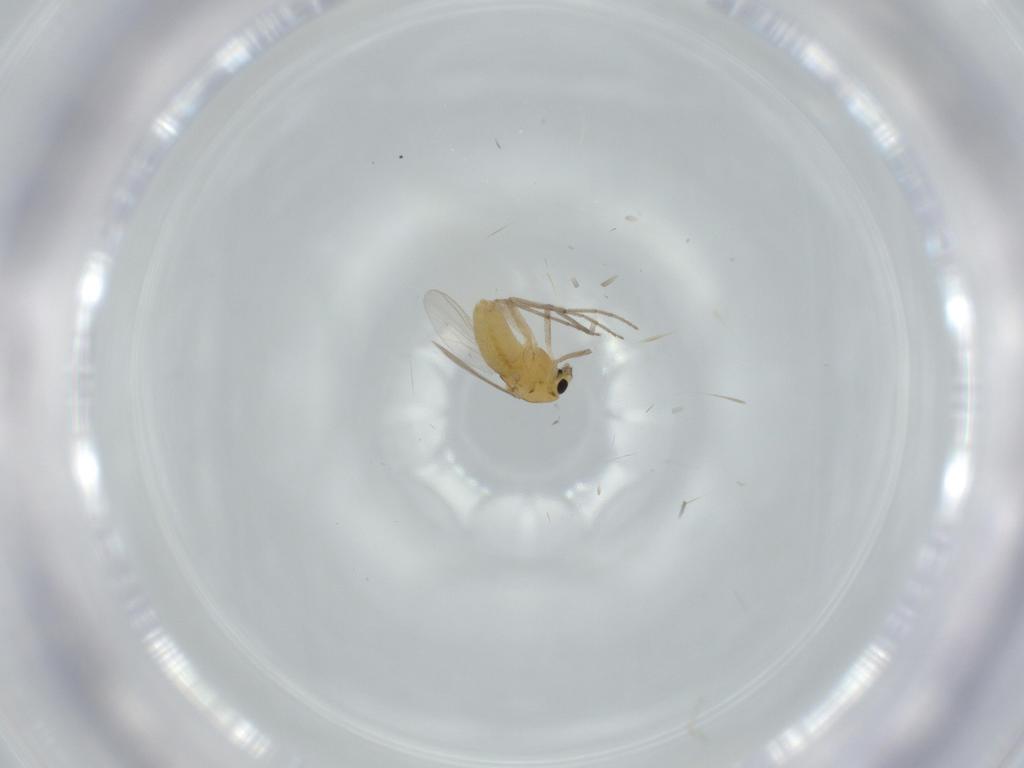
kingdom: Animalia
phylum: Arthropoda
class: Insecta
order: Diptera
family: Chironomidae
